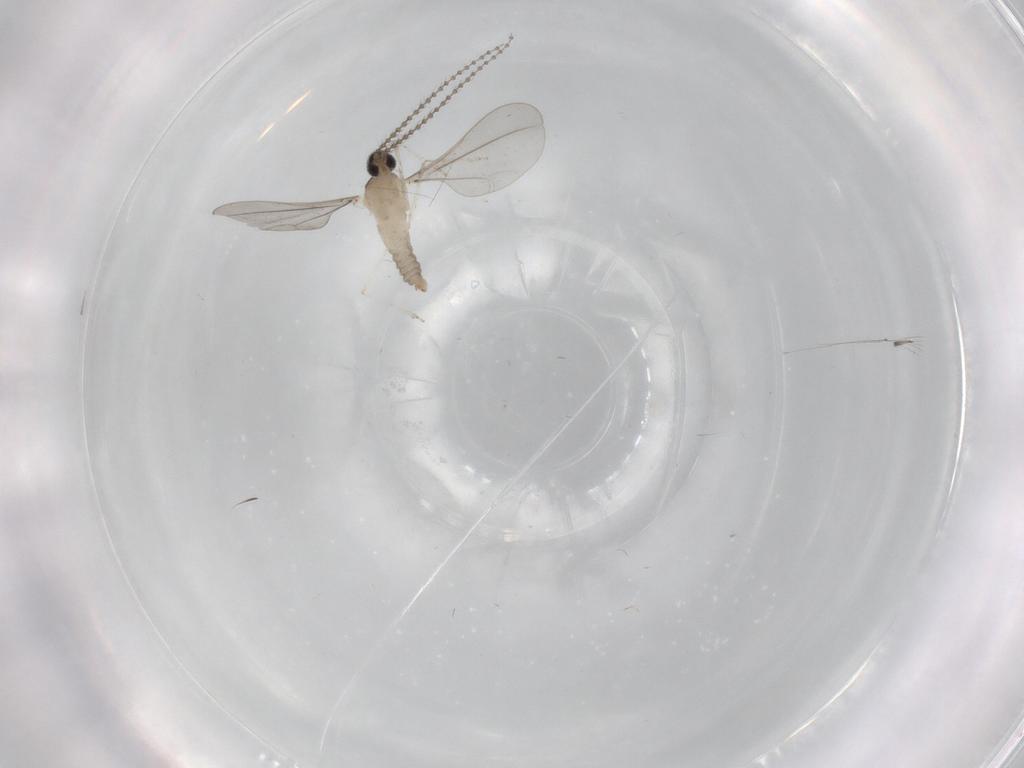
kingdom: Animalia
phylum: Arthropoda
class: Insecta
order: Diptera
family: Cecidomyiidae
